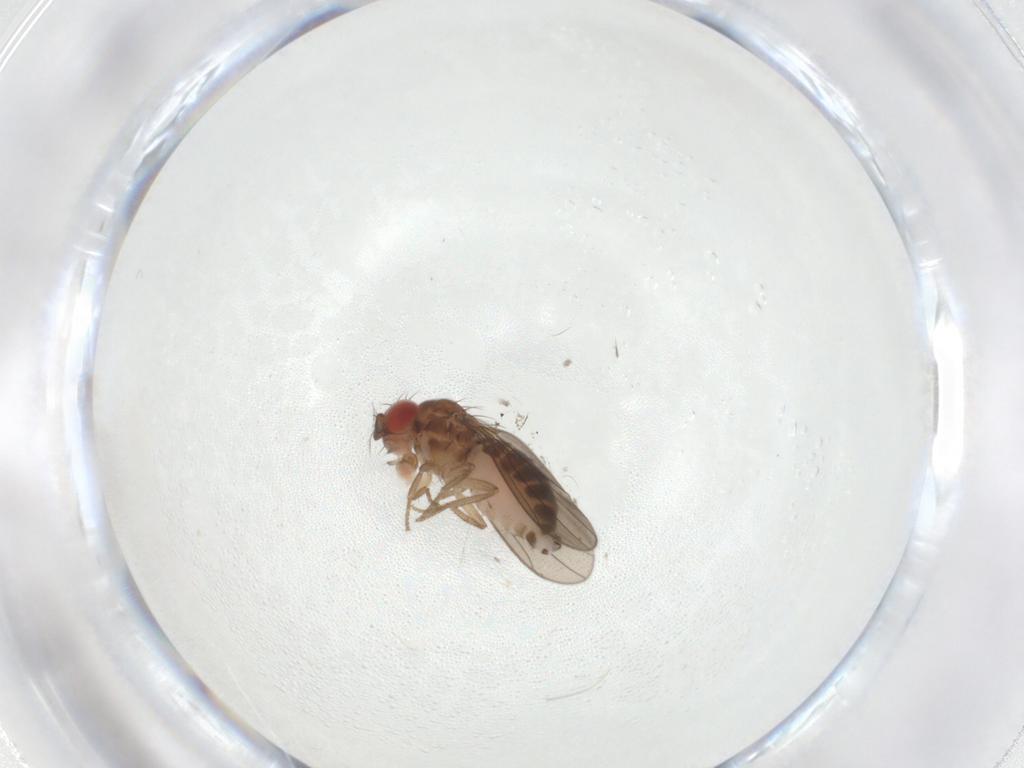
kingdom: Animalia
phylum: Arthropoda
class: Insecta
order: Diptera
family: Drosophilidae
